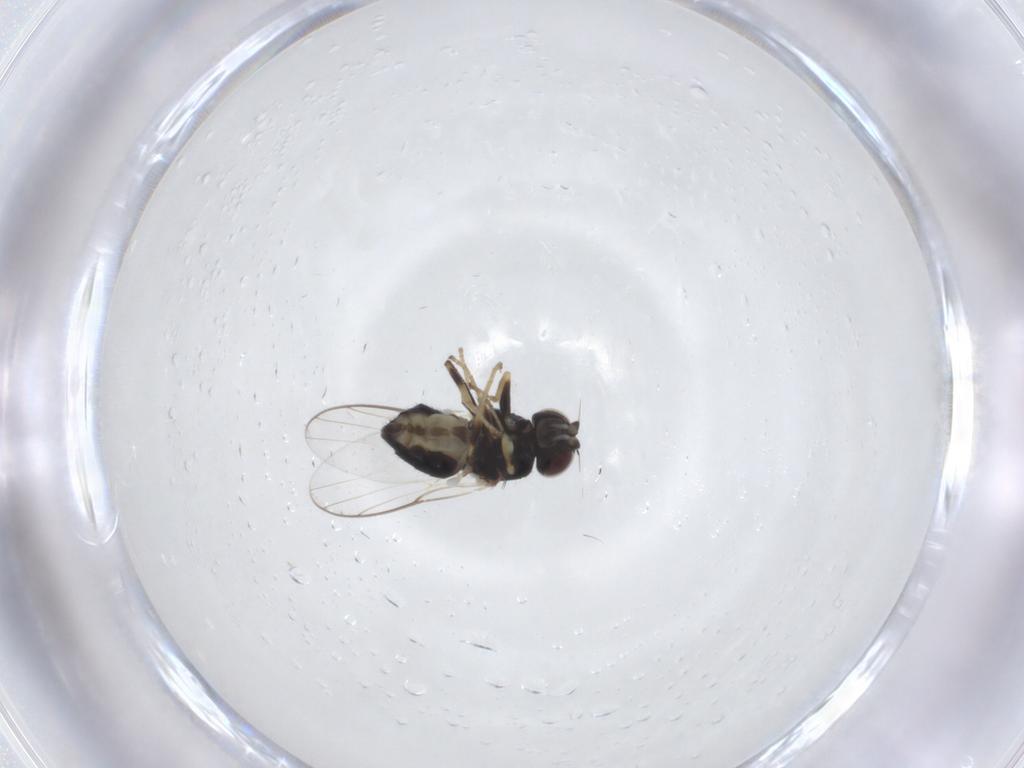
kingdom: Animalia
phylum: Arthropoda
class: Insecta
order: Diptera
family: Chloropidae
